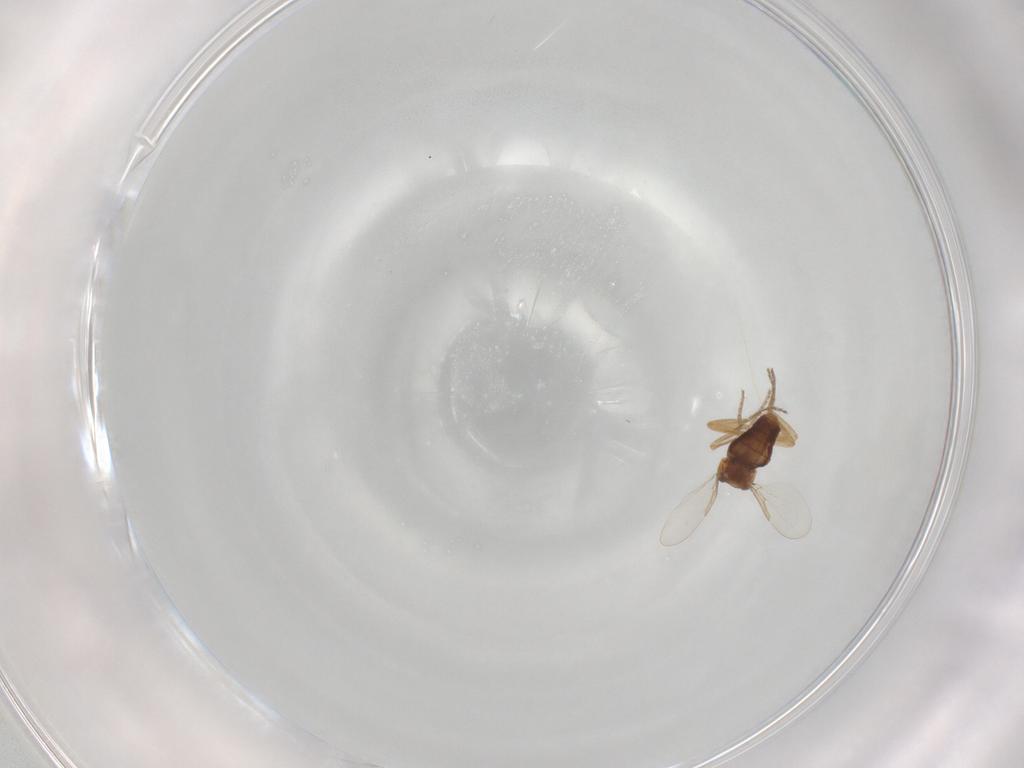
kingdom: Animalia
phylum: Arthropoda
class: Insecta
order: Diptera
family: Ceratopogonidae
